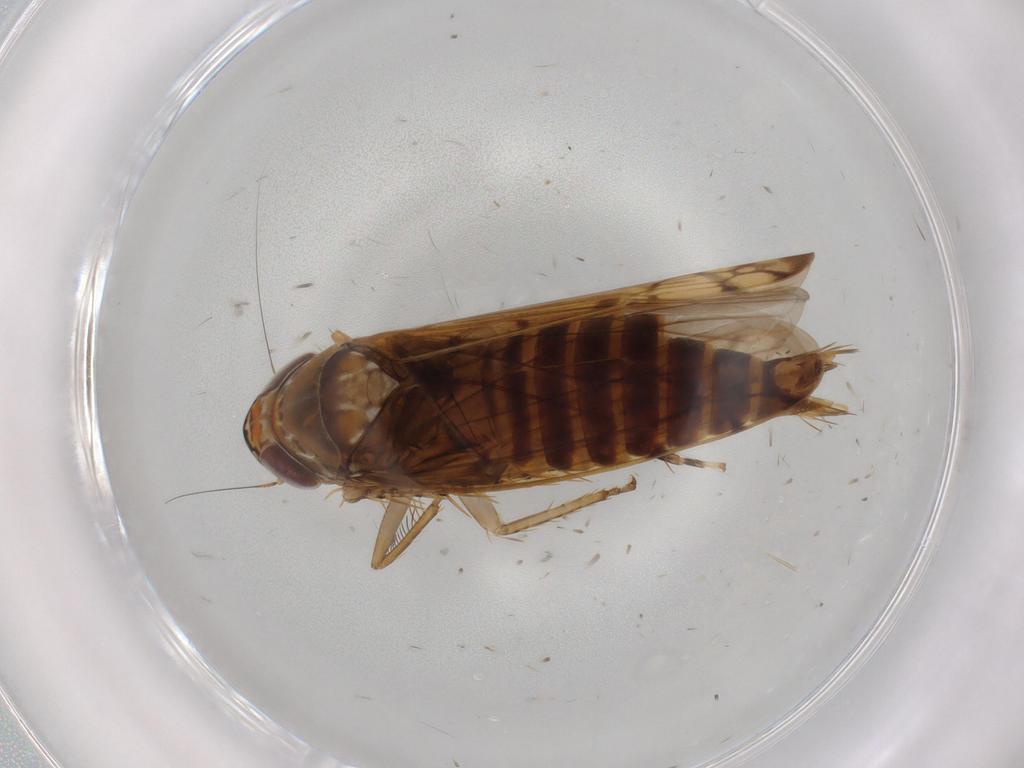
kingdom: Animalia
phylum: Arthropoda
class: Insecta
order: Hemiptera
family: Cicadellidae
